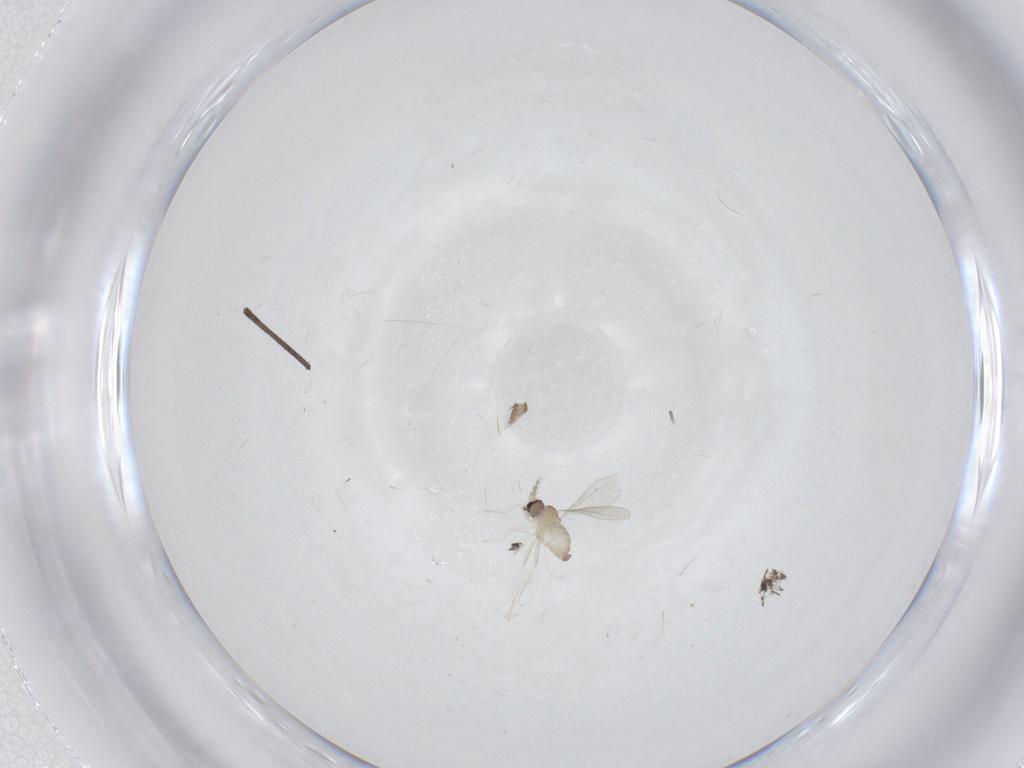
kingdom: Animalia
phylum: Arthropoda
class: Insecta
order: Diptera
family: Cecidomyiidae
